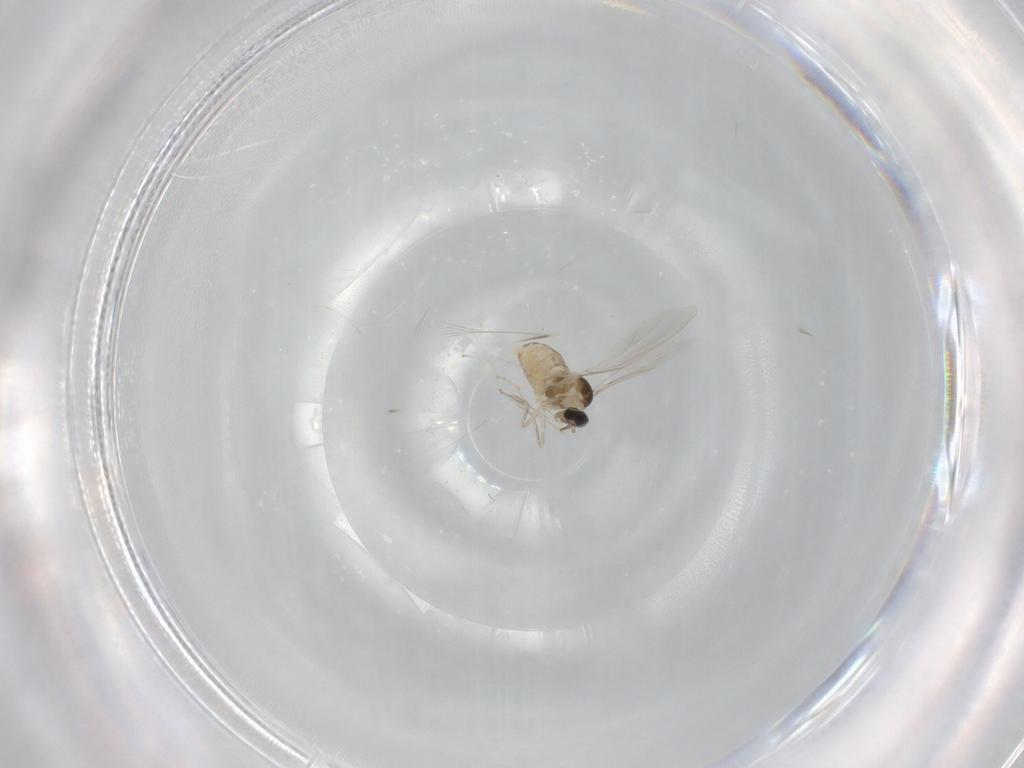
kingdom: Animalia
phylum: Arthropoda
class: Insecta
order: Diptera
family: Cecidomyiidae
